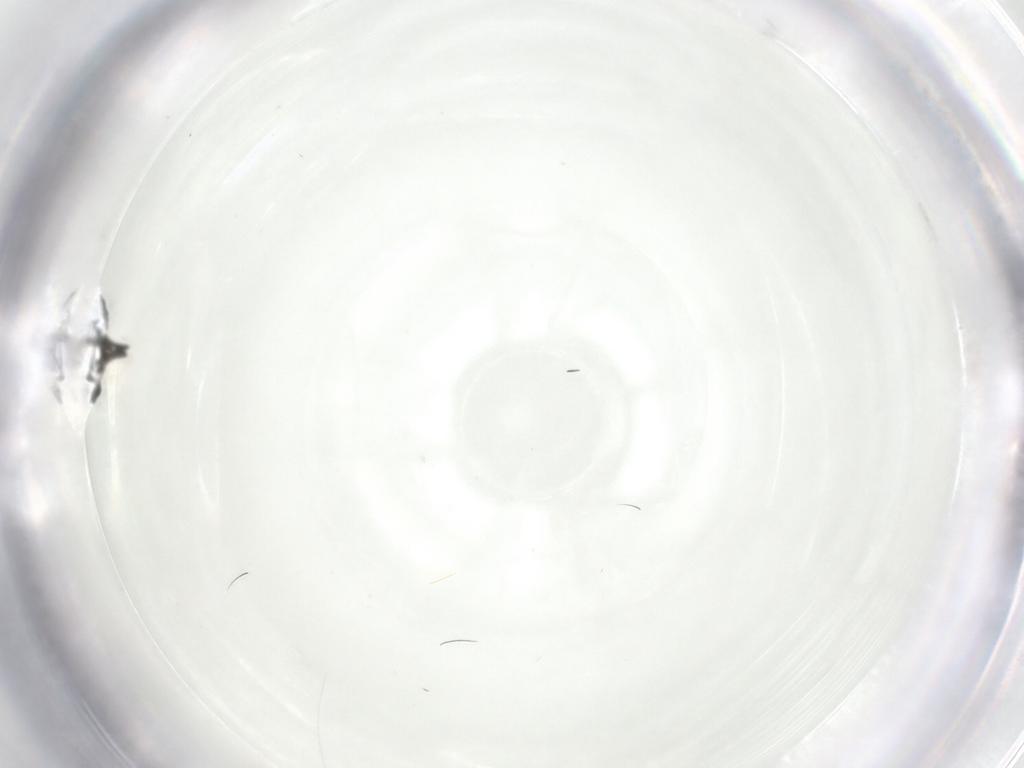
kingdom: Animalia
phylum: Arthropoda
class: Insecta
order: Diptera
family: Sciaridae
